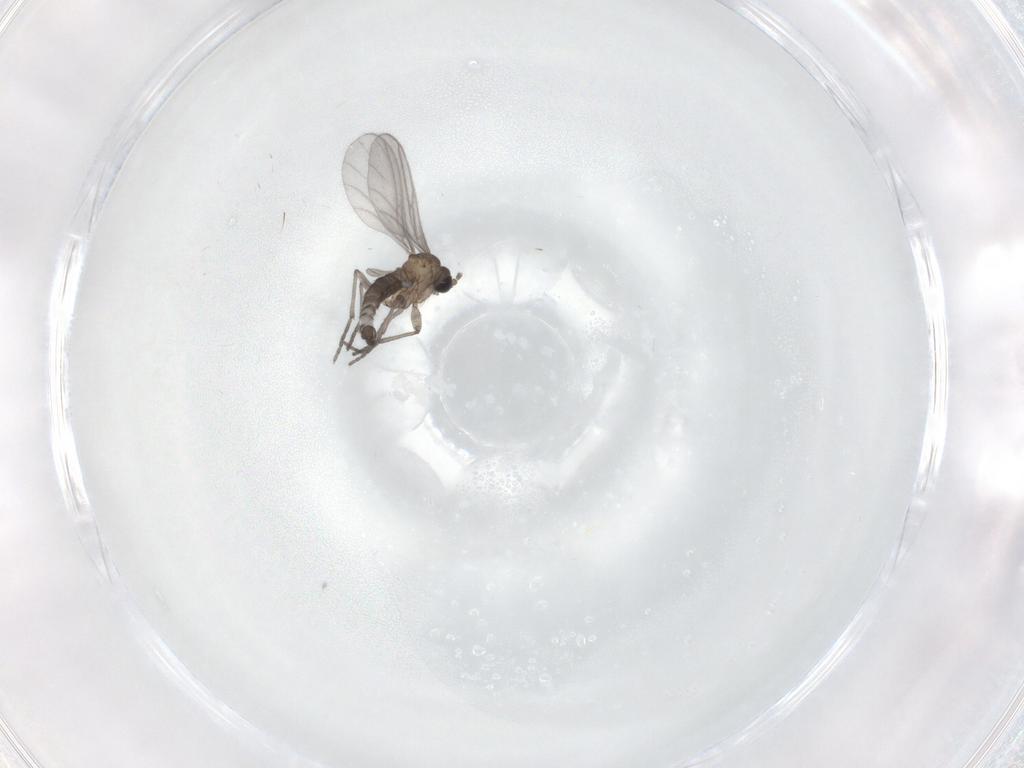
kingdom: Animalia
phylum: Arthropoda
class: Insecta
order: Diptera
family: Sciaridae
